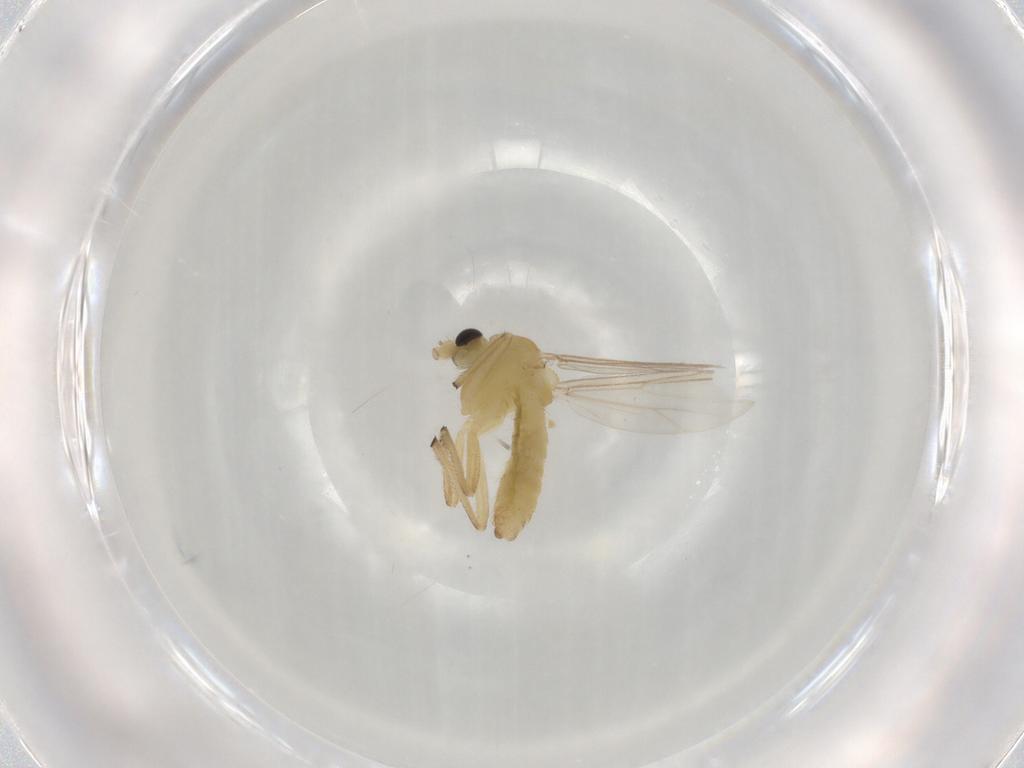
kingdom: Animalia
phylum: Arthropoda
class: Insecta
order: Diptera
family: Chironomidae
